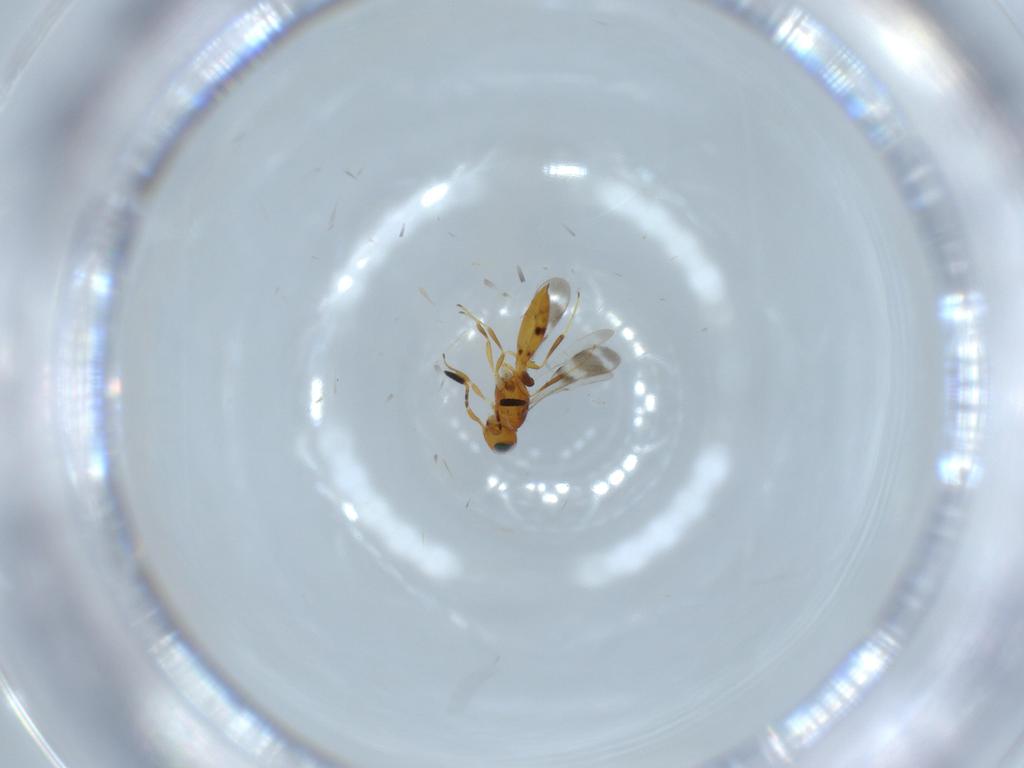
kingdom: Animalia
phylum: Arthropoda
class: Insecta
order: Hymenoptera
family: Scelionidae
